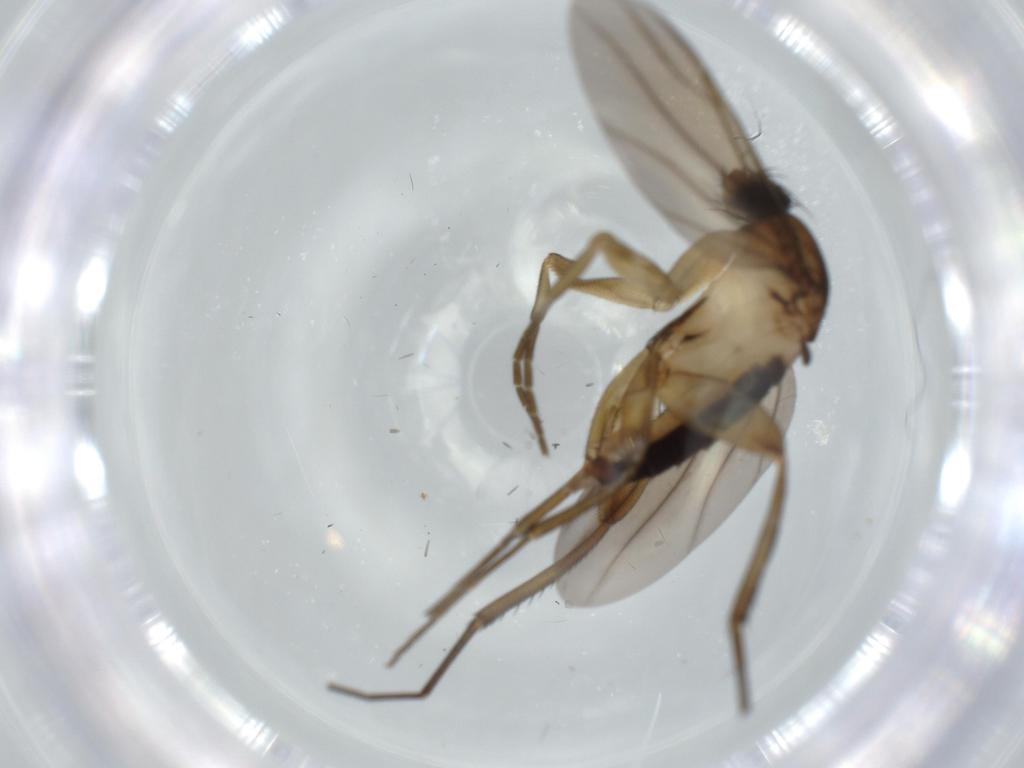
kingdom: Animalia
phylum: Arthropoda
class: Insecta
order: Diptera
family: Phoridae
